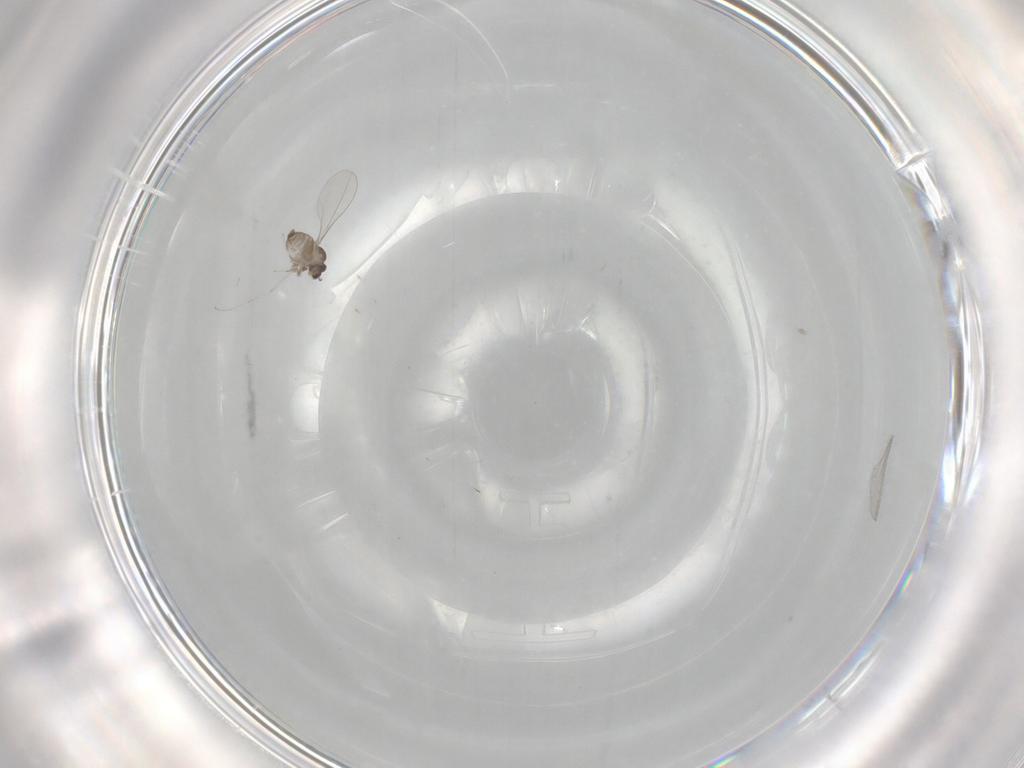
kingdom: Animalia
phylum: Arthropoda
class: Insecta
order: Diptera
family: Cecidomyiidae
